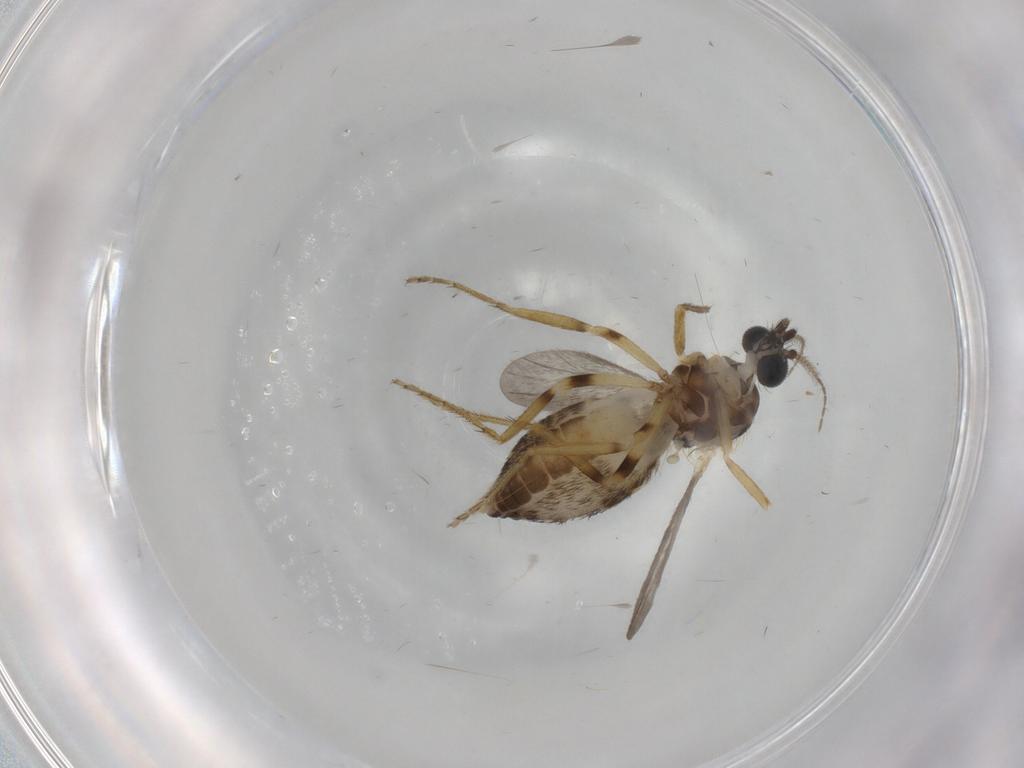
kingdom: Animalia
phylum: Arthropoda
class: Insecta
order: Diptera
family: Ceratopogonidae
